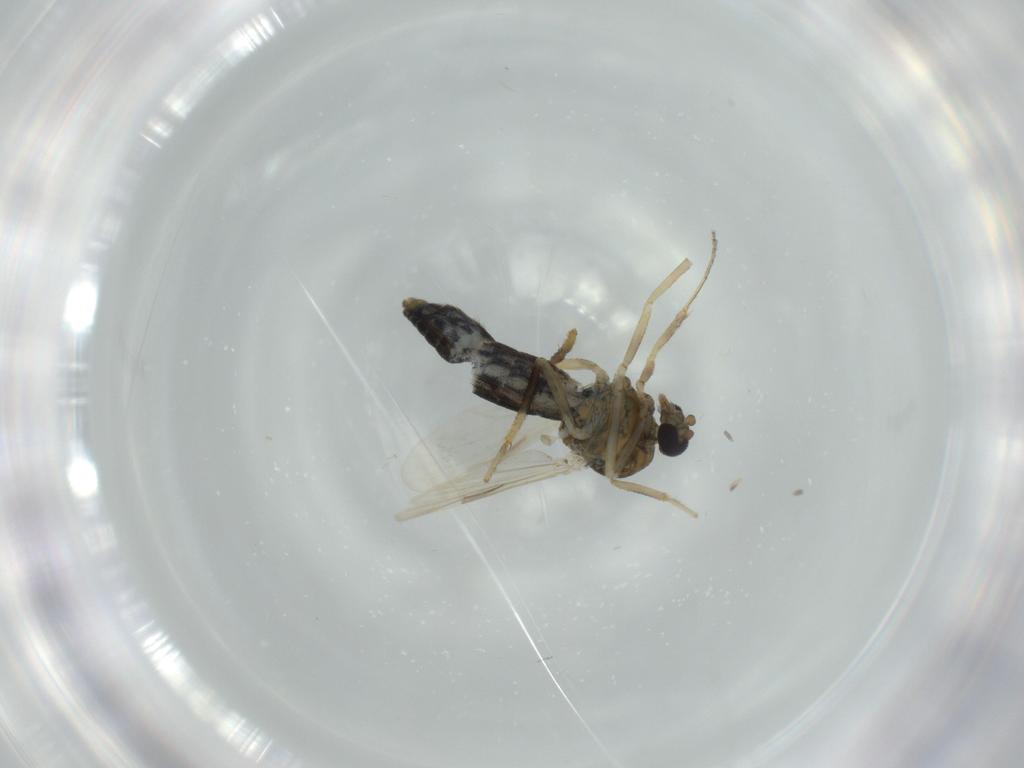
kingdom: Animalia
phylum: Arthropoda
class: Insecta
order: Diptera
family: Ceratopogonidae
